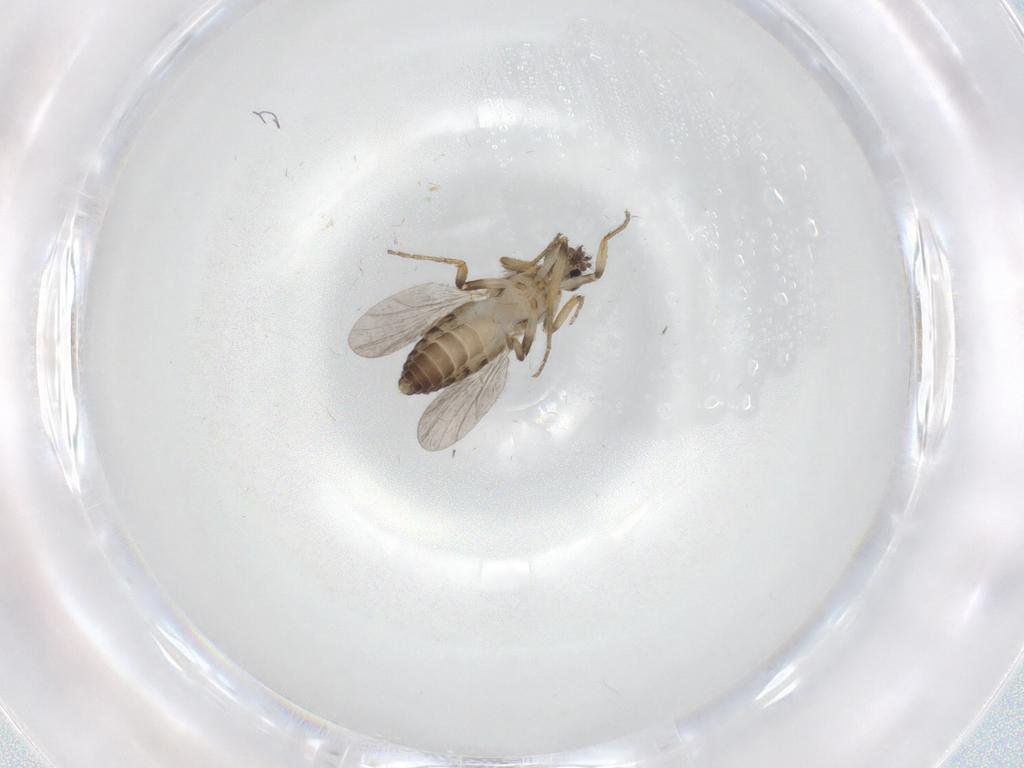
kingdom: Animalia
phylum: Arthropoda
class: Insecta
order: Diptera
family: Ceratopogonidae
